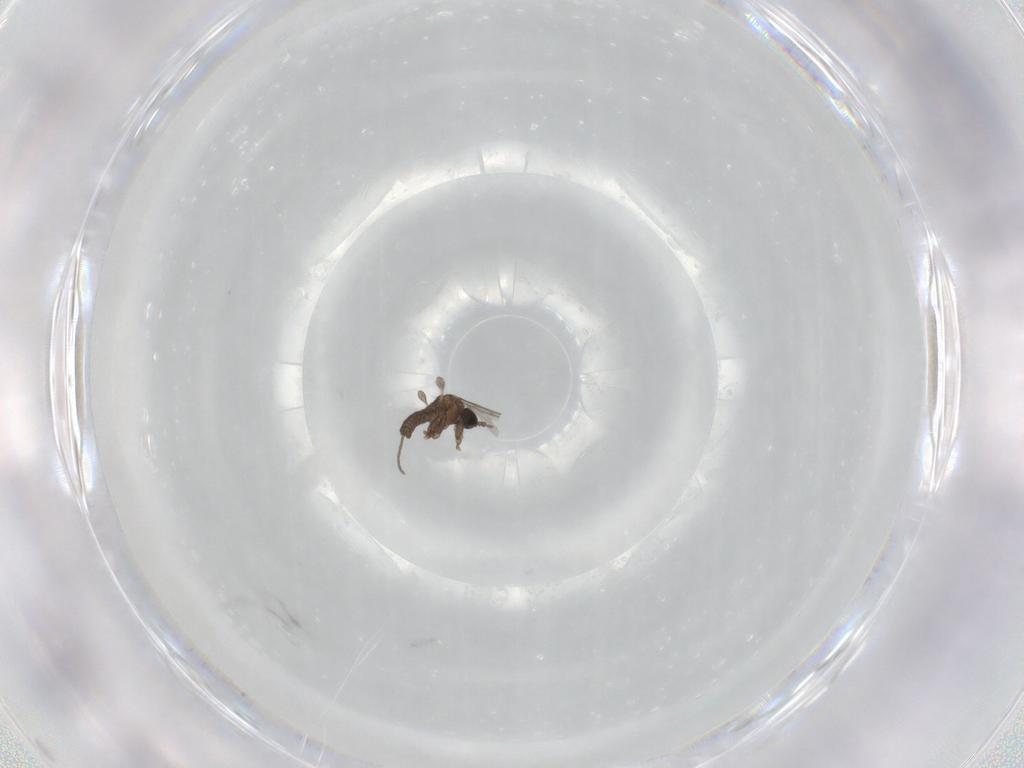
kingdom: Animalia
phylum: Arthropoda
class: Insecta
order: Diptera
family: Sciaridae
